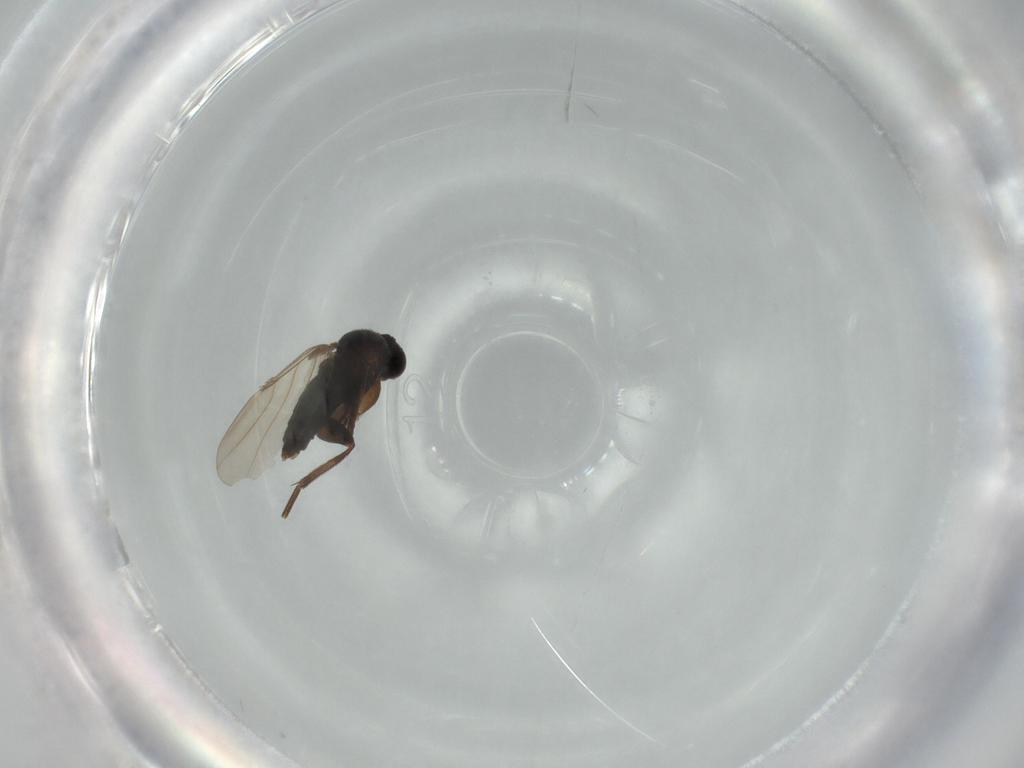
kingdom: Animalia
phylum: Arthropoda
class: Insecta
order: Diptera
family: Phoridae
